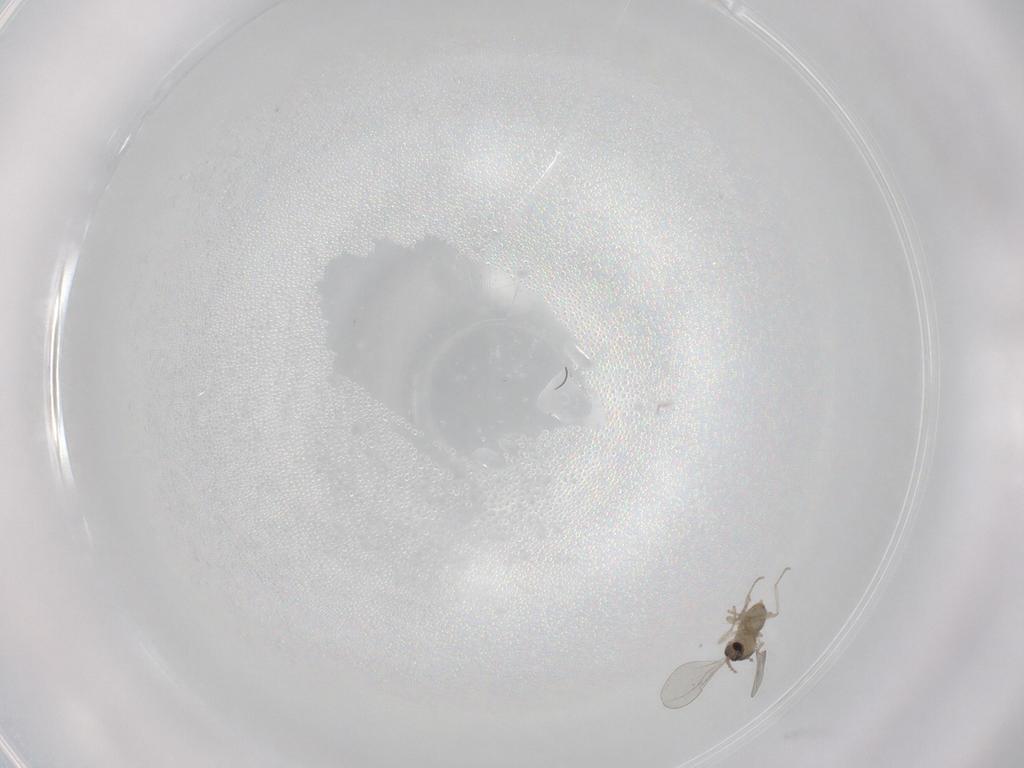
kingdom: Animalia
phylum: Arthropoda
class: Insecta
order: Diptera
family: Cecidomyiidae
